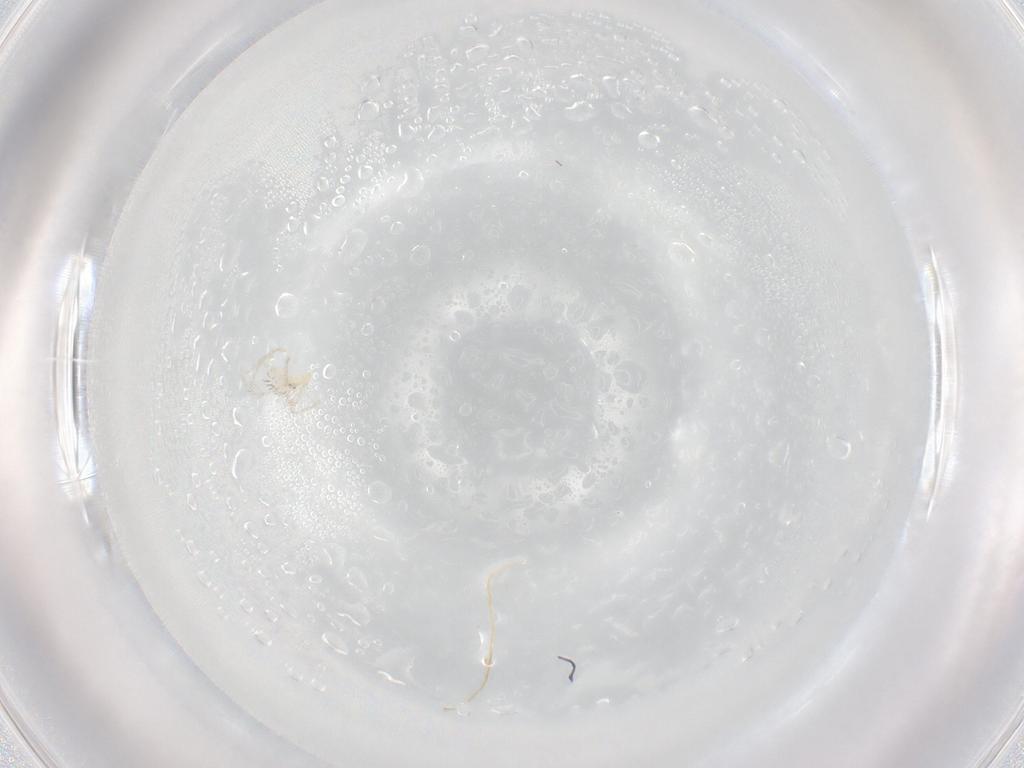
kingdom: Animalia
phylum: Arthropoda
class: Arachnida
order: Trombidiformes
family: Erythraeidae
